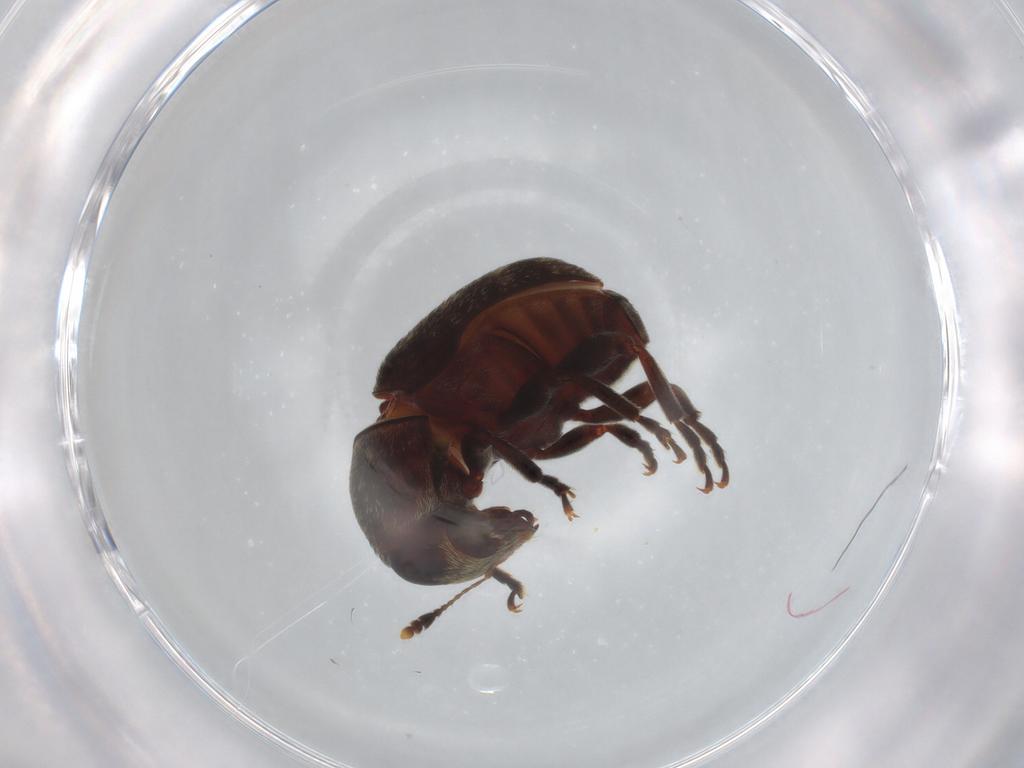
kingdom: Animalia
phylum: Arthropoda
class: Insecta
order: Coleoptera
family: Anthribidae
